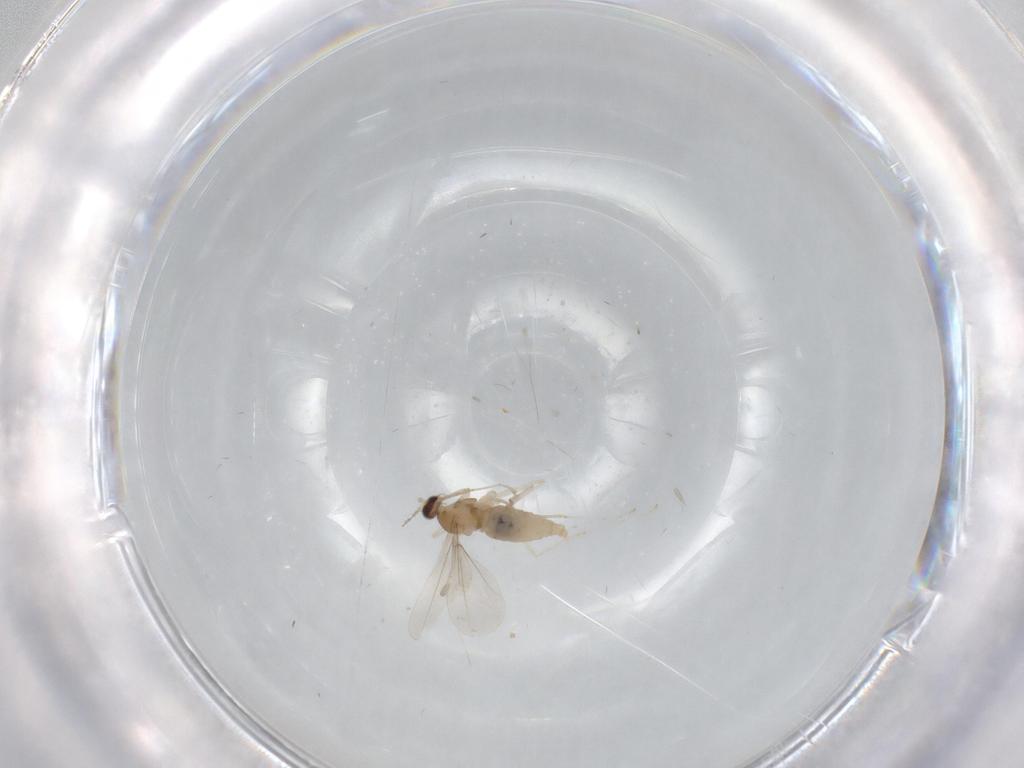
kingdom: Animalia
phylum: Arthropoda
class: Insecta
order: Diptera
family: Cecidomyiidae
